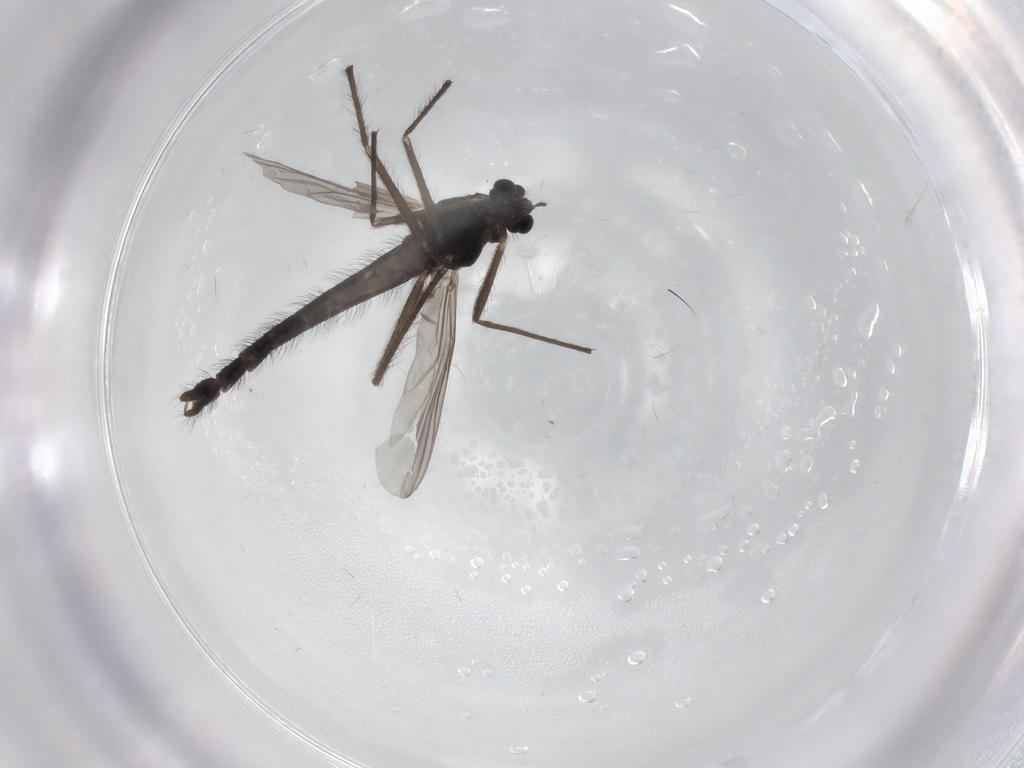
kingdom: Animalia
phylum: Arthropoda
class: Insecta
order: Diptera
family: Chironomidae
